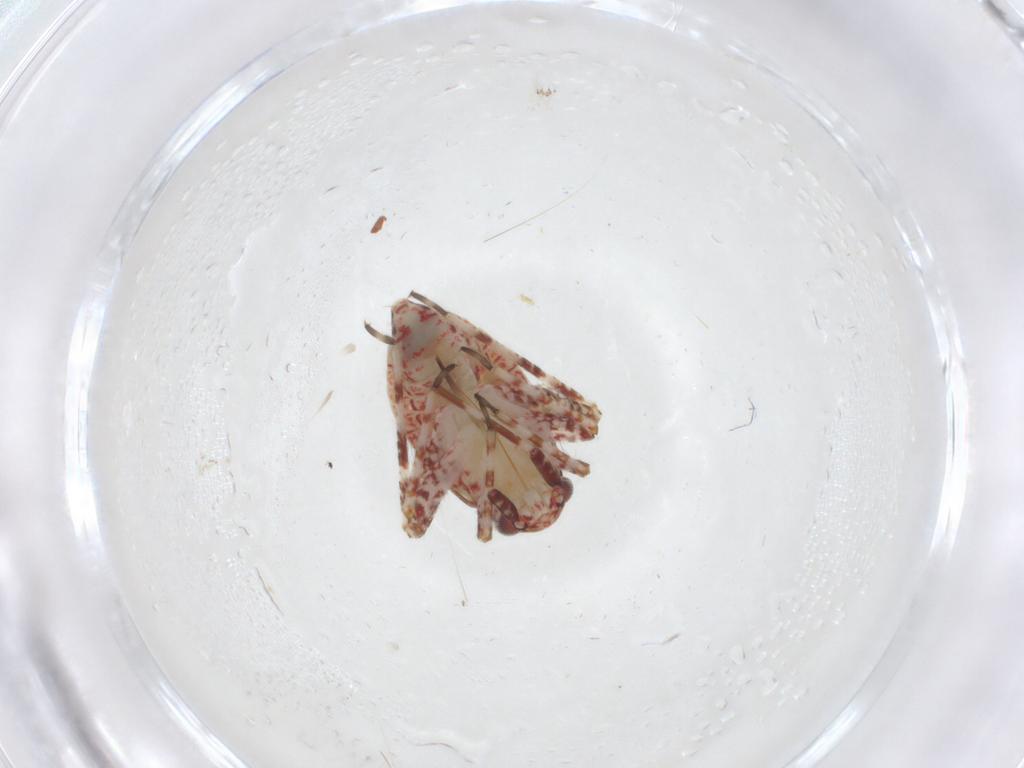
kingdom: Animalia
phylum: Arthropoda
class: Insecta
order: Hemiptera
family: Miridae
